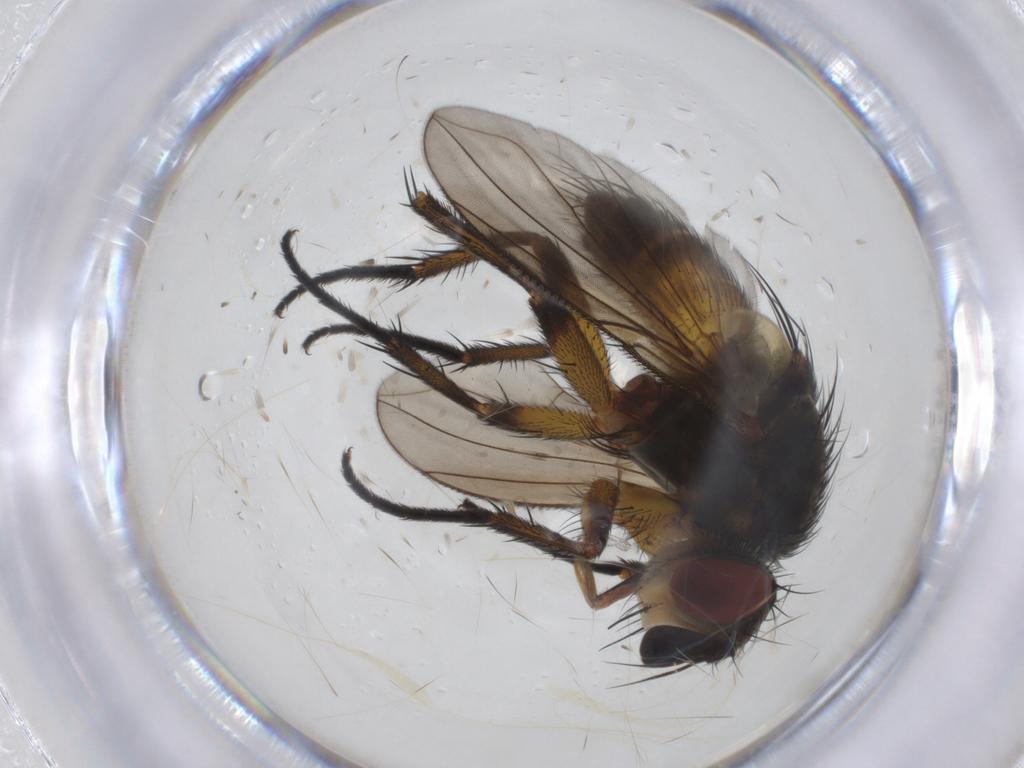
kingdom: Animalia
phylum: Arthropoda
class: Insecta
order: Diptera
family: Tachinidae
